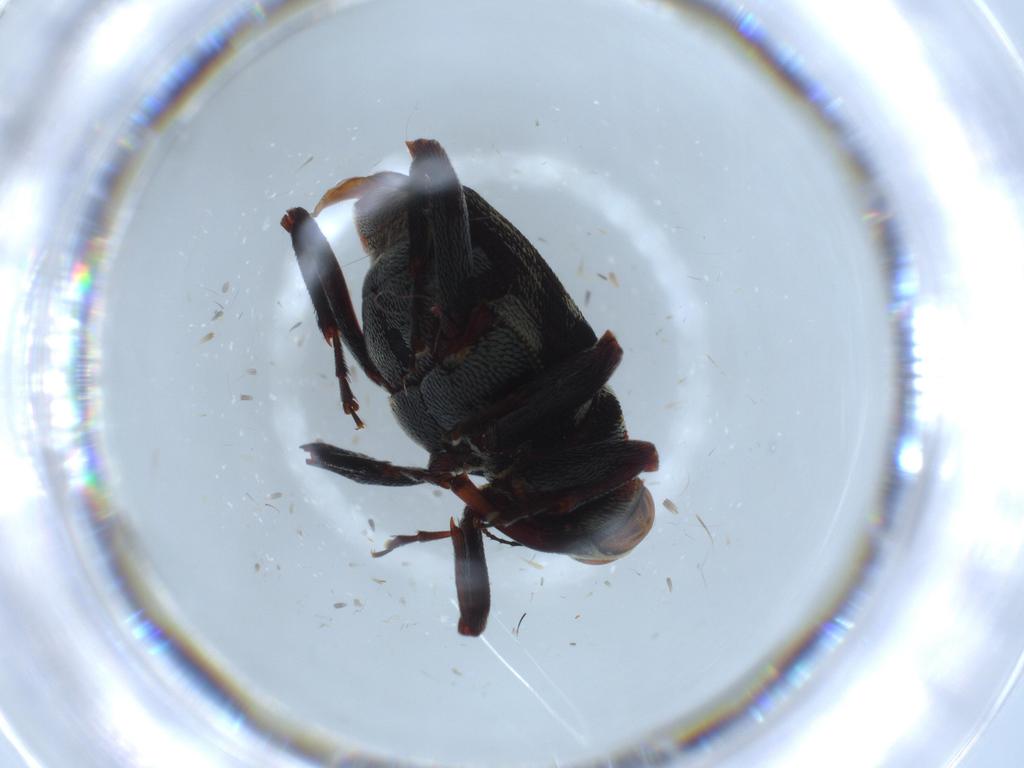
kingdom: Animalia
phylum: Arthropoda
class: Insecta
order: Coleoptera
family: Curculionidae
